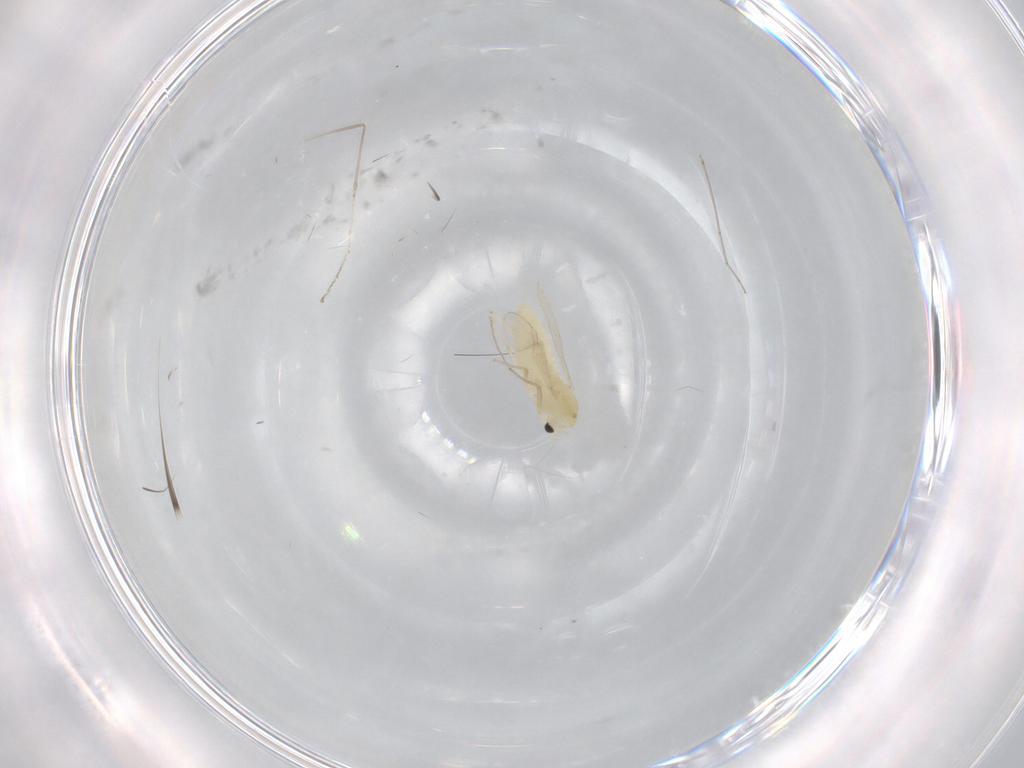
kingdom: Animalia
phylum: Arthropoda
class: Insecta
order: Diptera
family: Chironomidae
